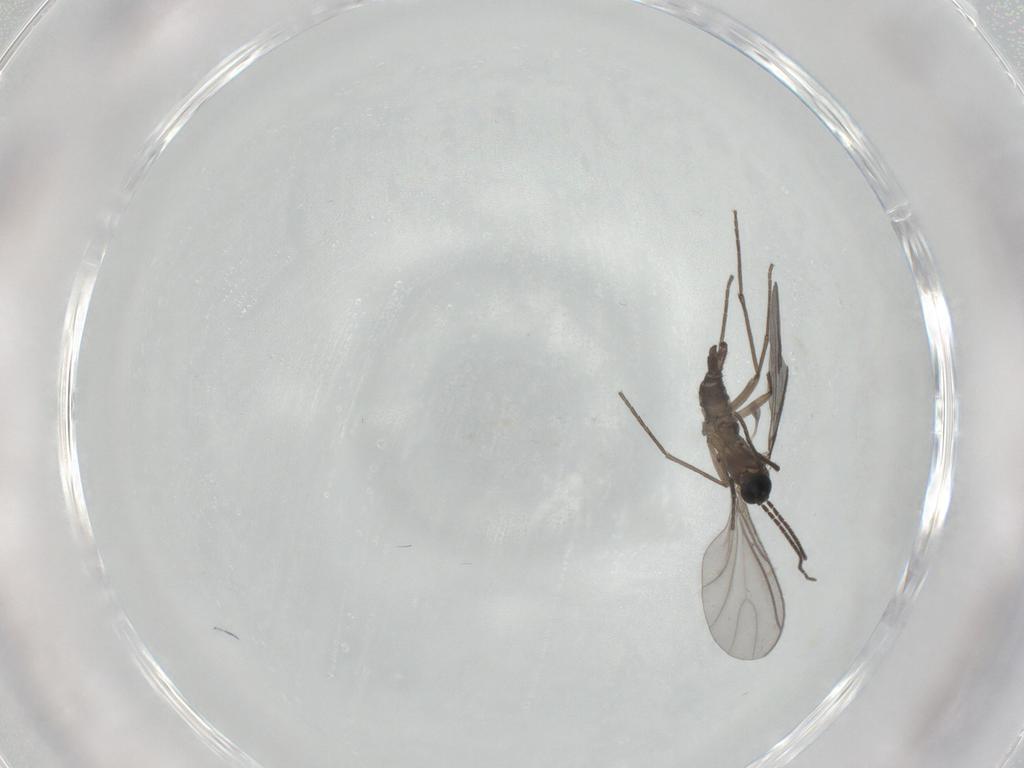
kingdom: Animalia
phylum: Arthropoda
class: Insecta
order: Diptera
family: Sciaridae
